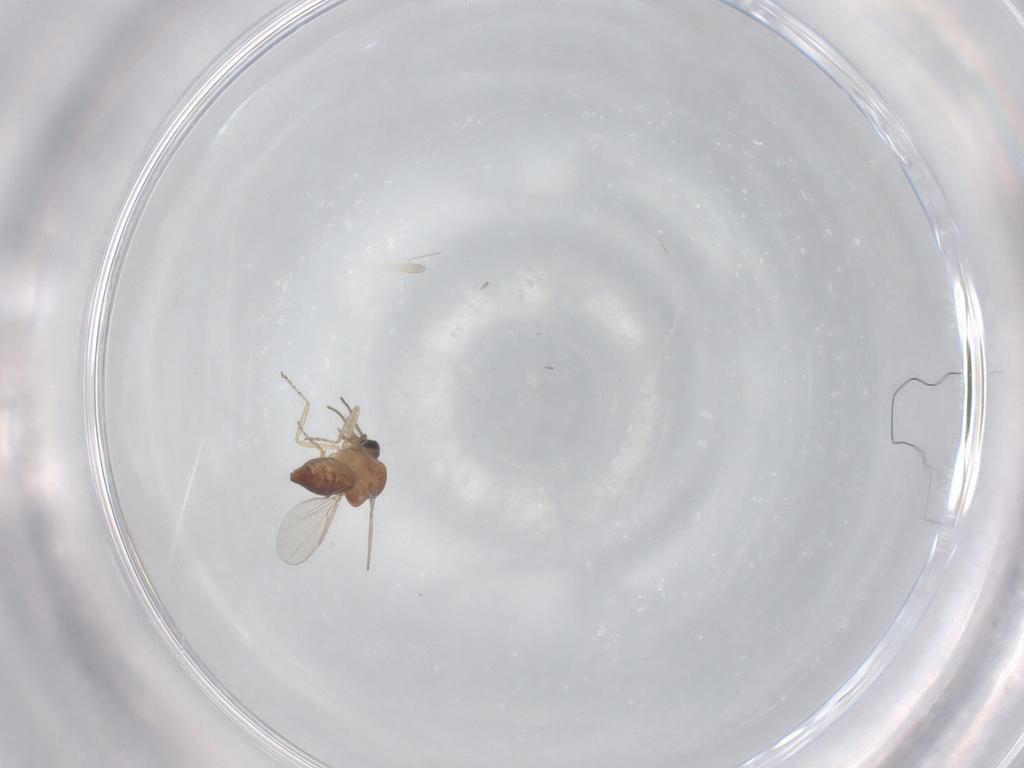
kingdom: Animalia
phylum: Arthropoda
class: Insecta
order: Diptera
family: Ceratopogonidae
